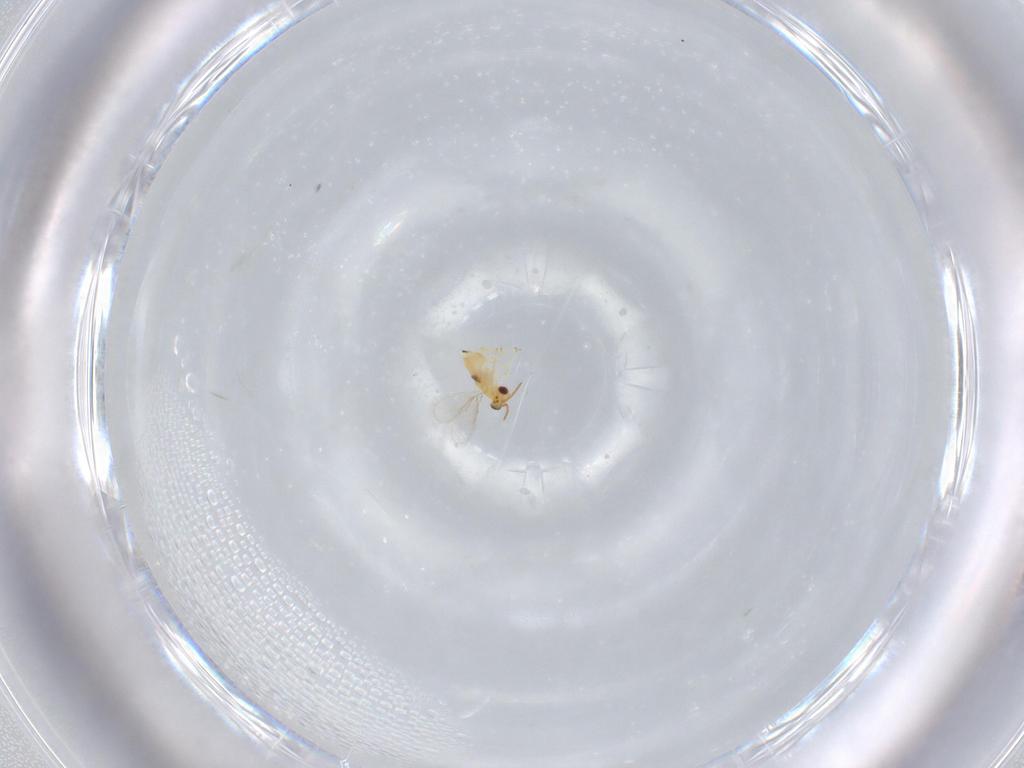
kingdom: Animalia
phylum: Arthropoda
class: Insecta
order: Hymenoptera
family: Aphelinidae
